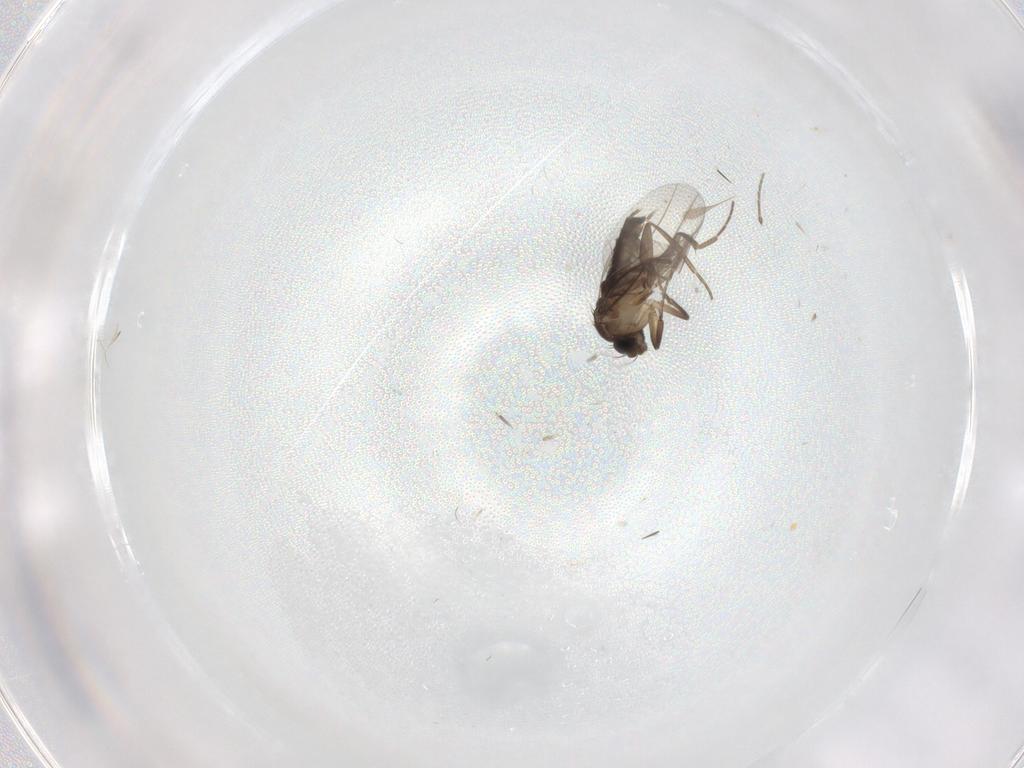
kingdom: Animalia
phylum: Arthropoda
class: Insecta
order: Diptera
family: Phoridae
